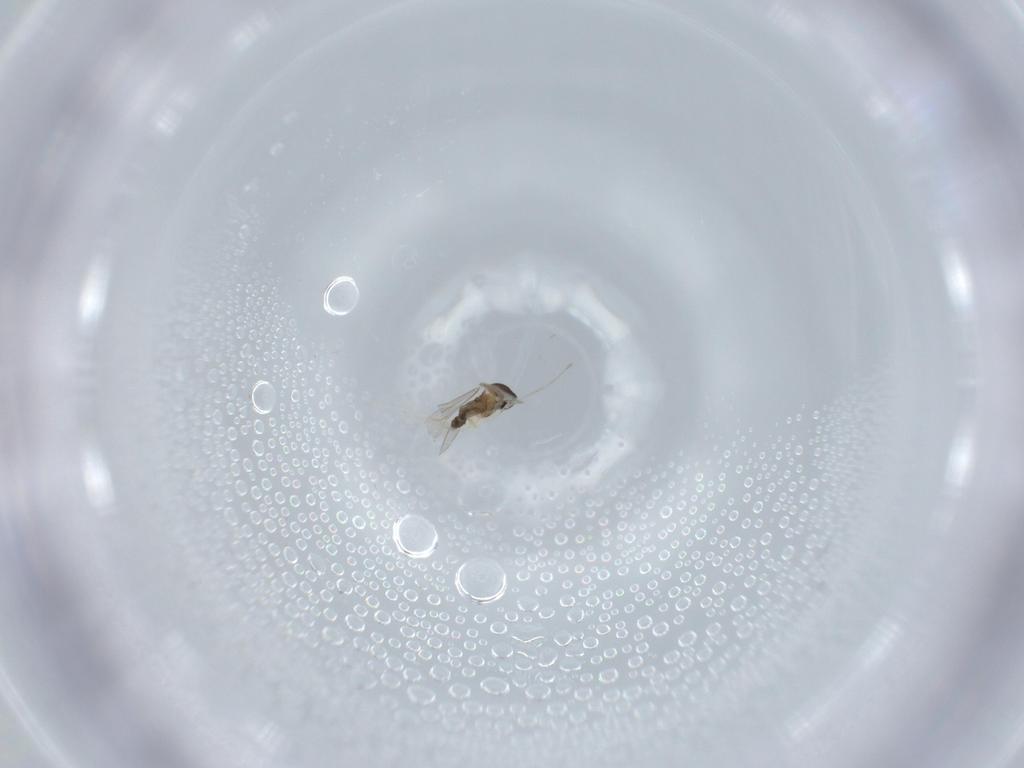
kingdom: Animalia
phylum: Arthropoda
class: Insecta
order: Diptera
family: Cecidomyiidae
